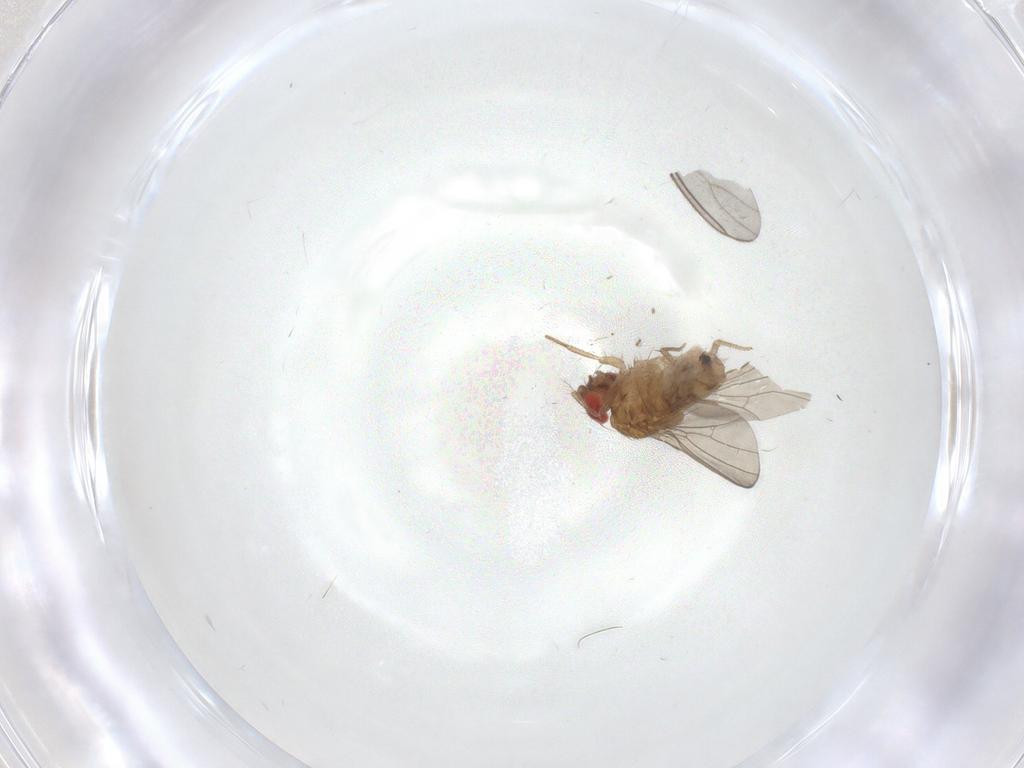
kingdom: Animalia
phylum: Arthropoda
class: Insecta
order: Diptera
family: Drosophilidae
